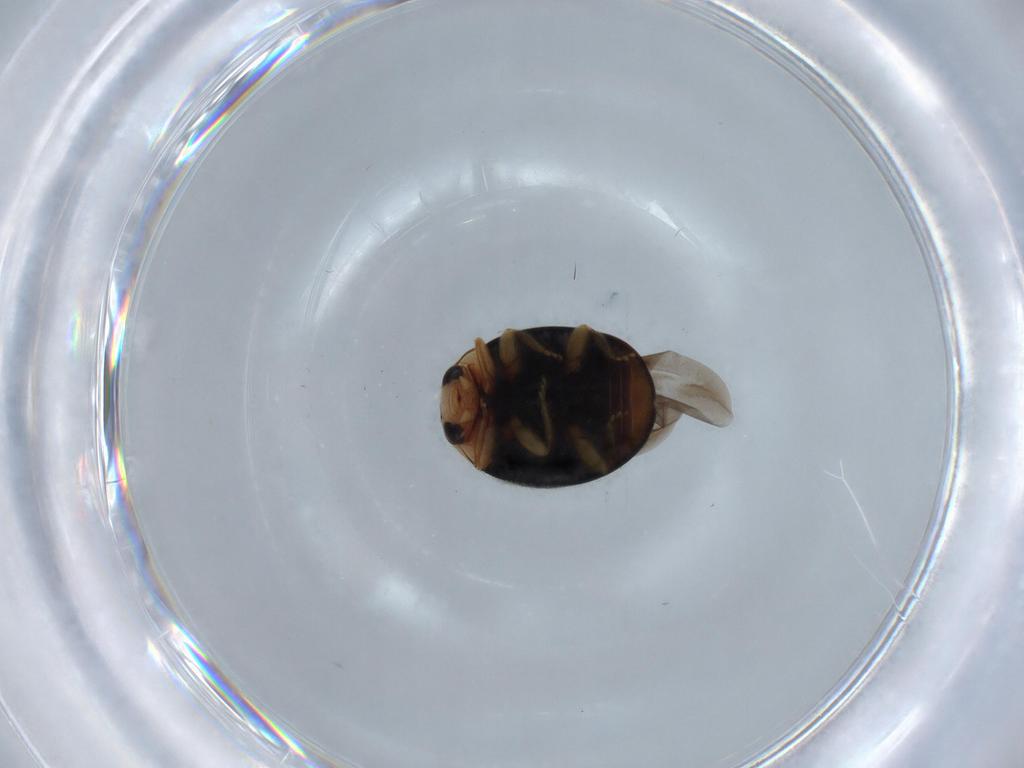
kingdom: Animalia
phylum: Arthropoda
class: Insecta
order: Coleoptera
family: Coccinellidae
